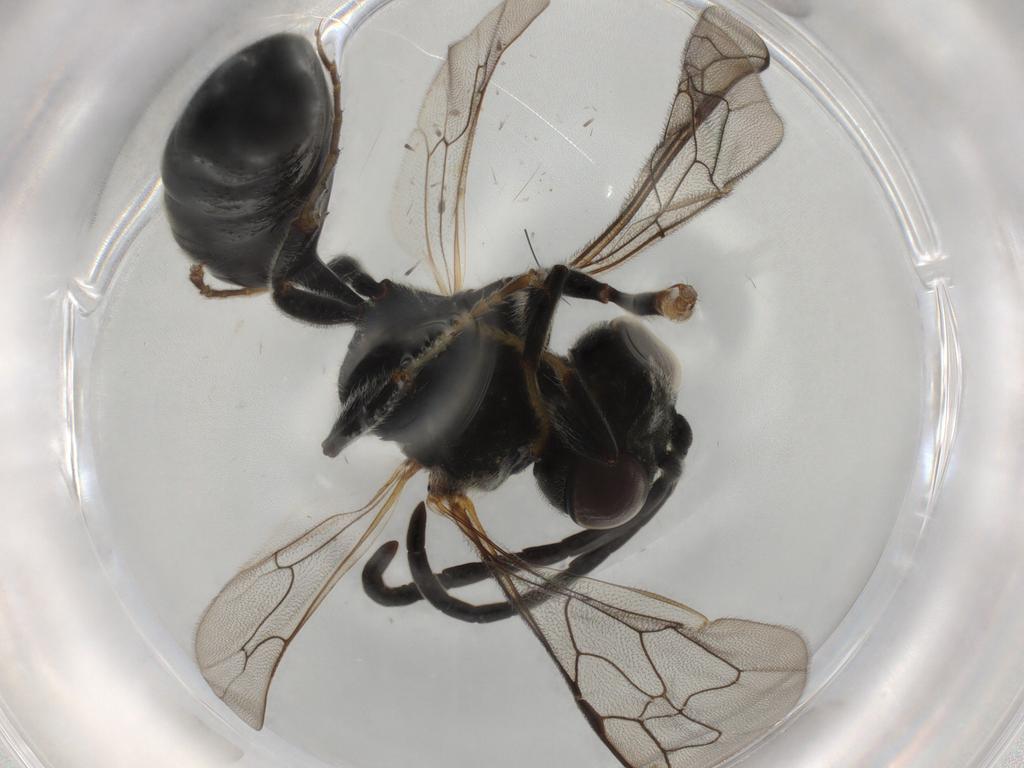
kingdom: Animalia
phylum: Arthropoda
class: Insecta
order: Hymenoptera
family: Crabronidae
